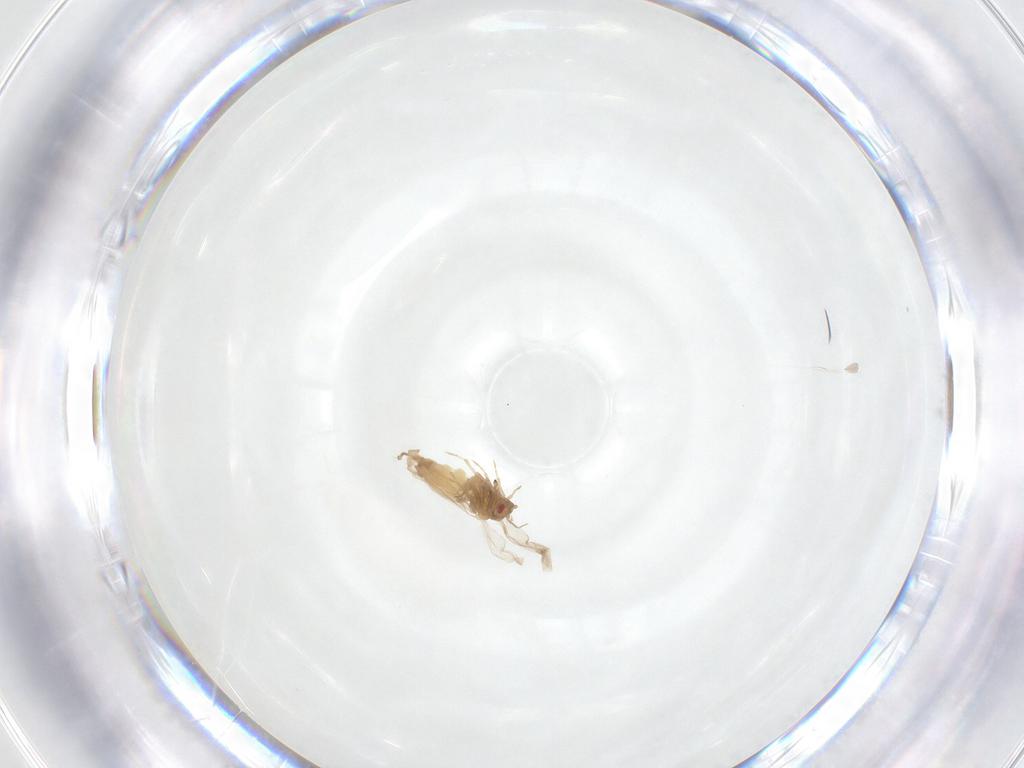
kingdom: Animalia
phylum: Arthropoda
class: Insecta
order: Hemiptera
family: Aleyrodidae
